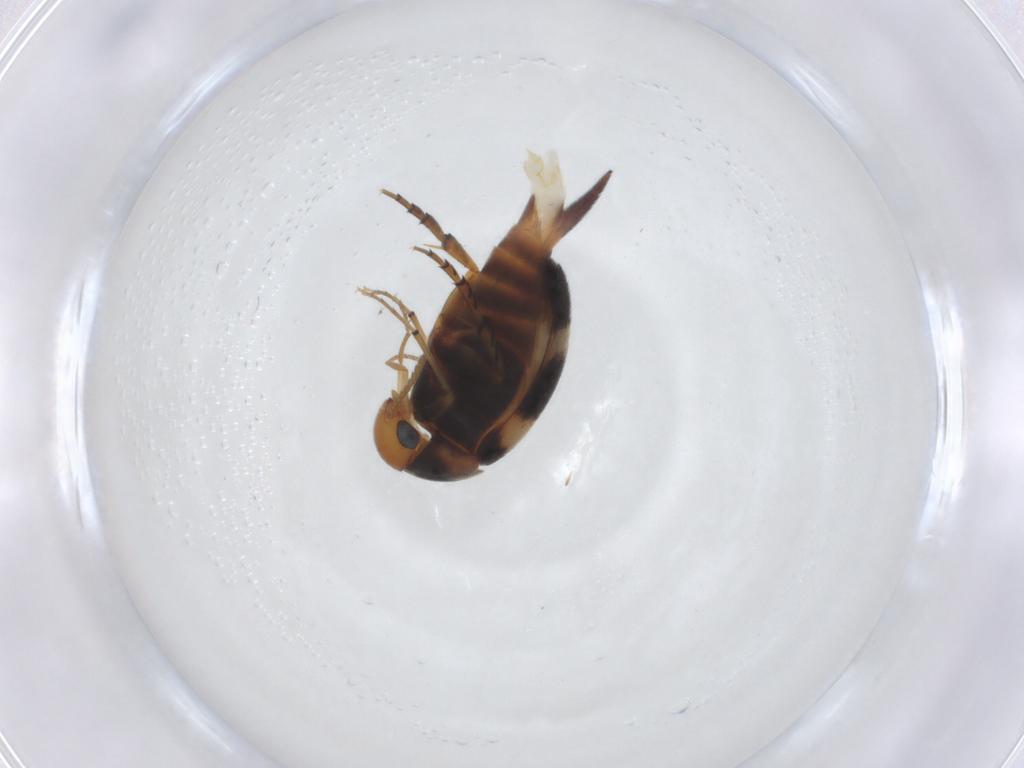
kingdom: Animalia
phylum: Arthropoda
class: Insecta
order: Coleoptera
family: Mordellidae
